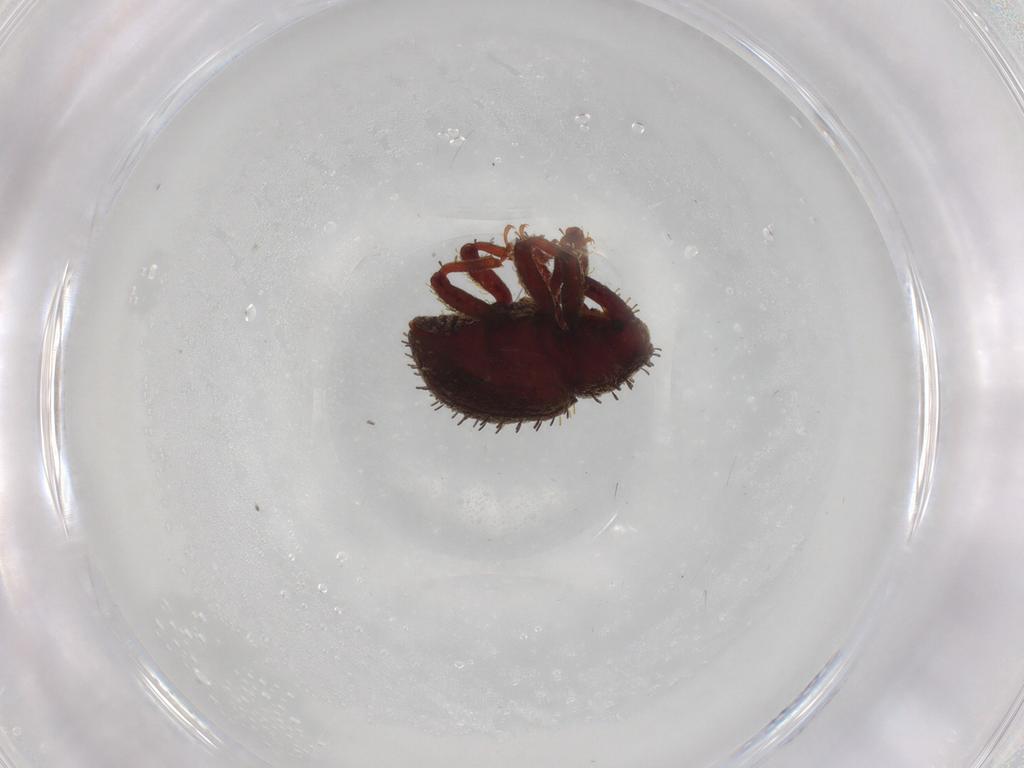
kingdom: Animalia
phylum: Arthropoda
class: Insecta
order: Coleoptera
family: Curculionidae
